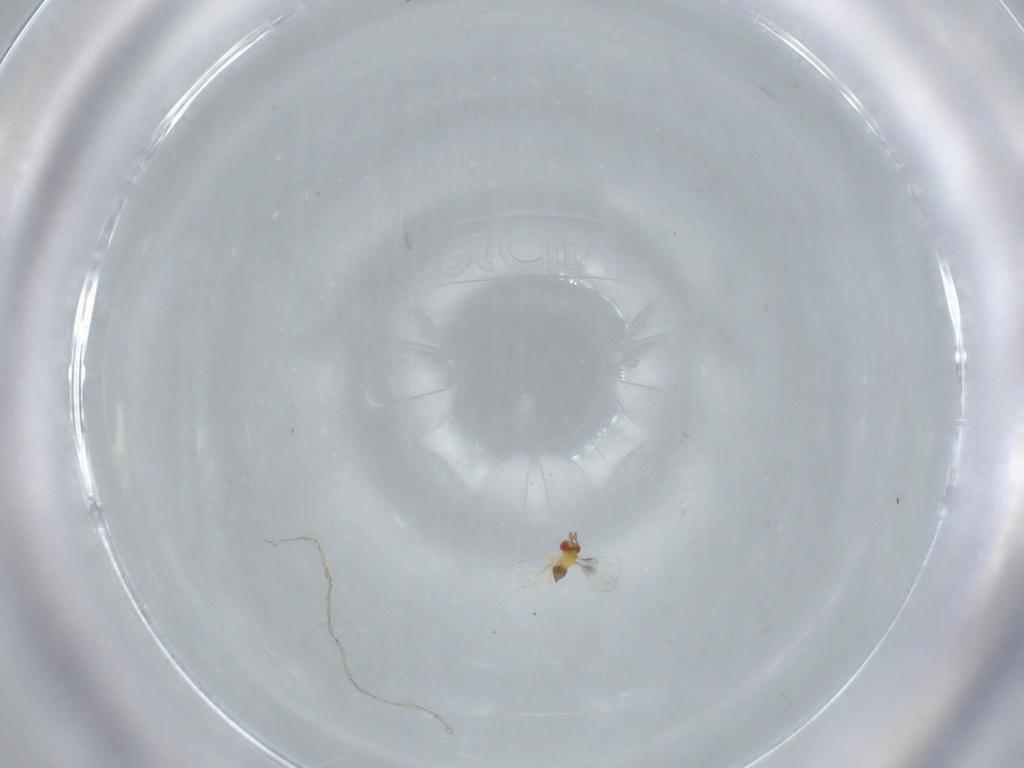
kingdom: Animalia
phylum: Arthropoda
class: Insecta
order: Hymenoptera
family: Trichogrammatidae
